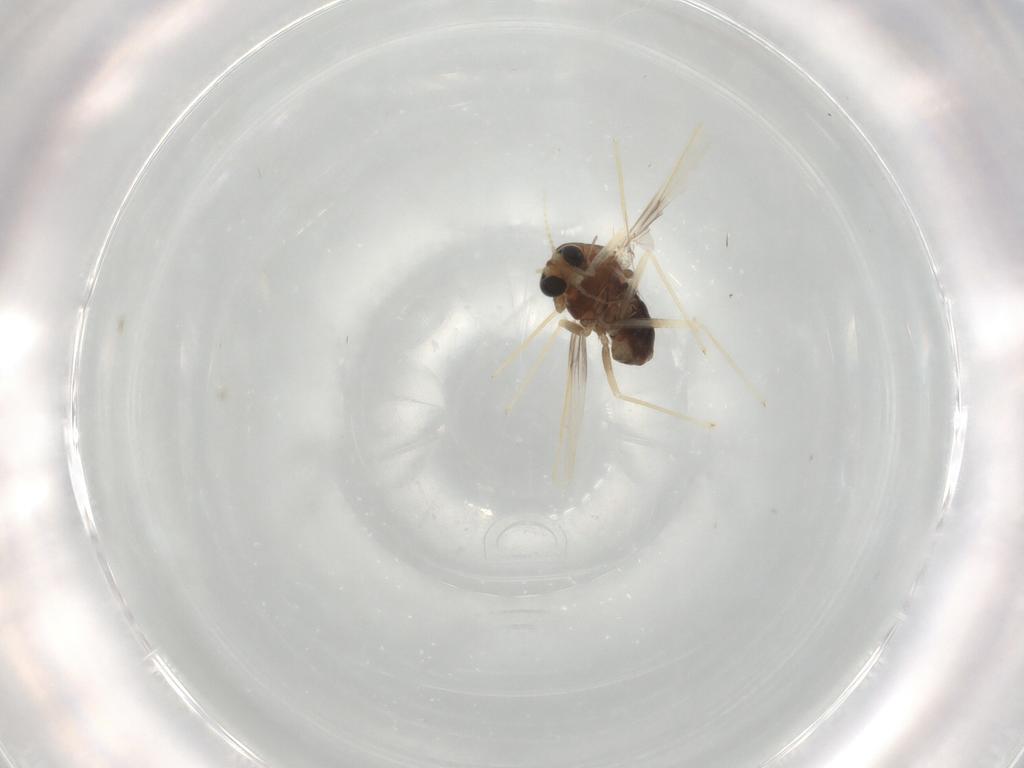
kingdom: Animalia
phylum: Arthropoda
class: Insecta
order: Diptera
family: Chironomidae
